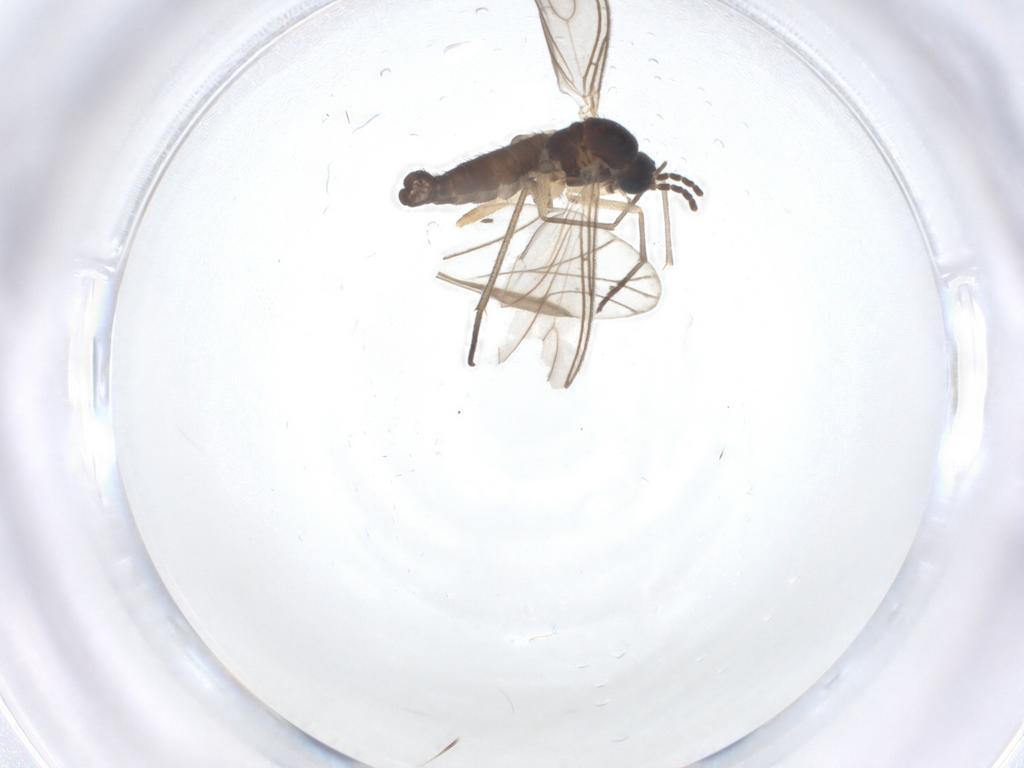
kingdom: Animalia
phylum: Arthropoda
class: Insecta
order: Diptera
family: Sciaridae
